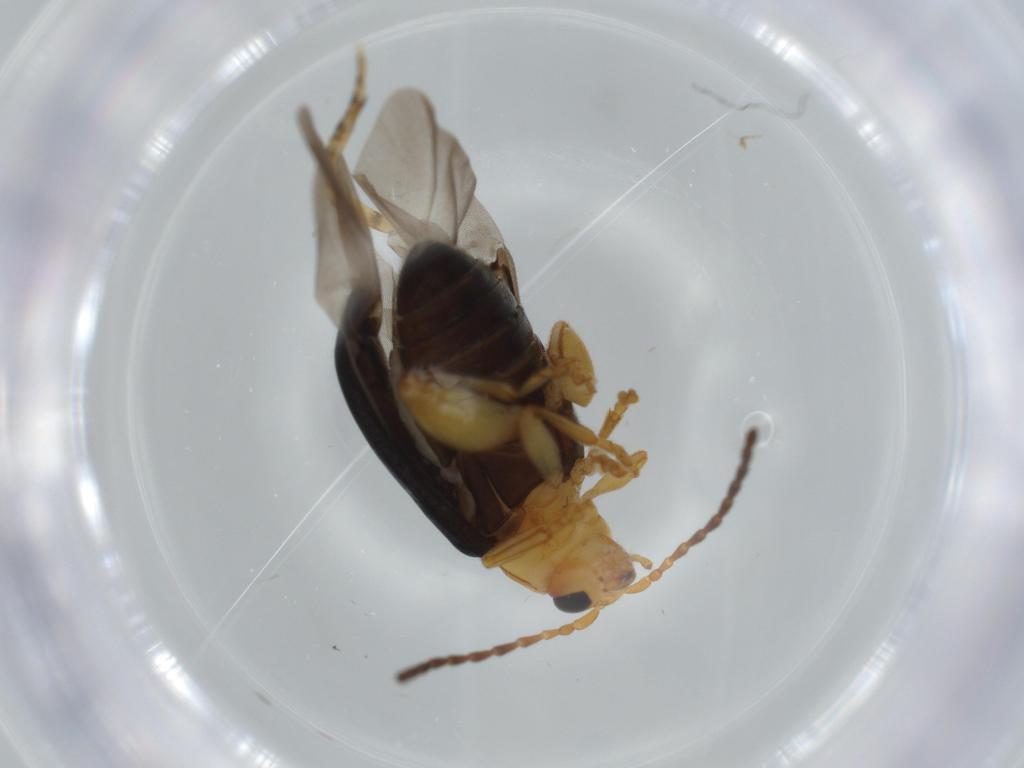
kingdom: Animalia
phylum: Arthropoda
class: Insecta
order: Coleoptera
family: Chrysomelidae
